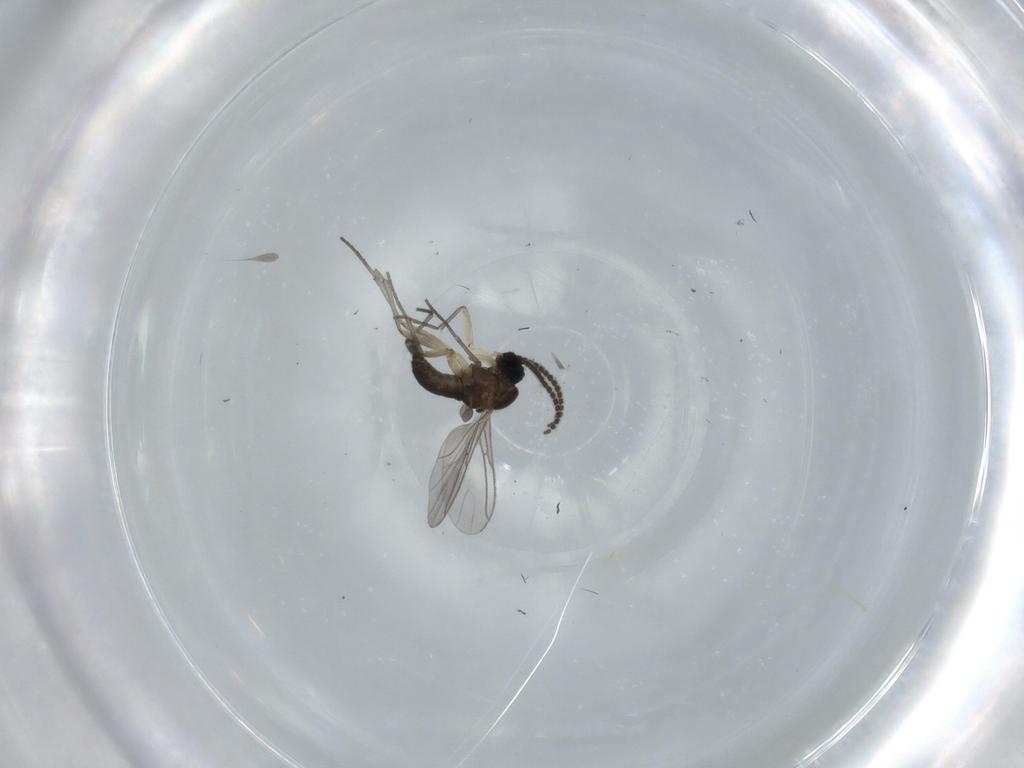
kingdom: Animalia
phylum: Arthropoda
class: Insecta
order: Diptera
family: Sciaridae
